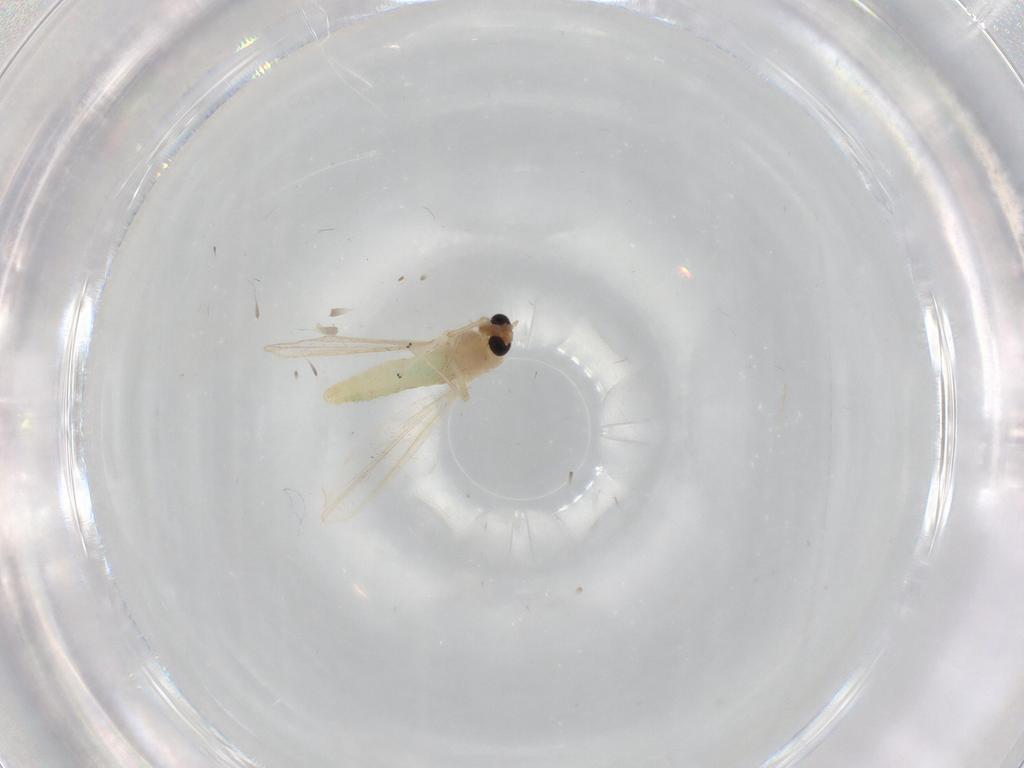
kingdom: Animalia
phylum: Arthropoda
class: Insecta
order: Diptera
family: Chironomidae
